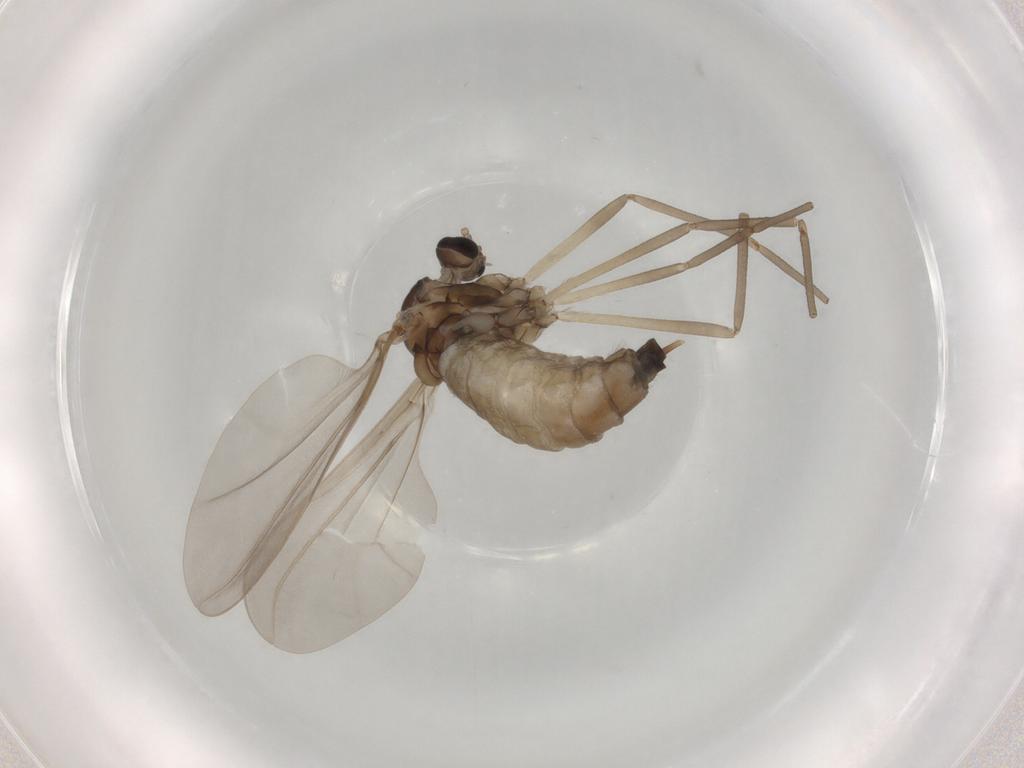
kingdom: Animalia
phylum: Arthropoda
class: Insecta
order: Diptera
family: Cecidomyiidae
